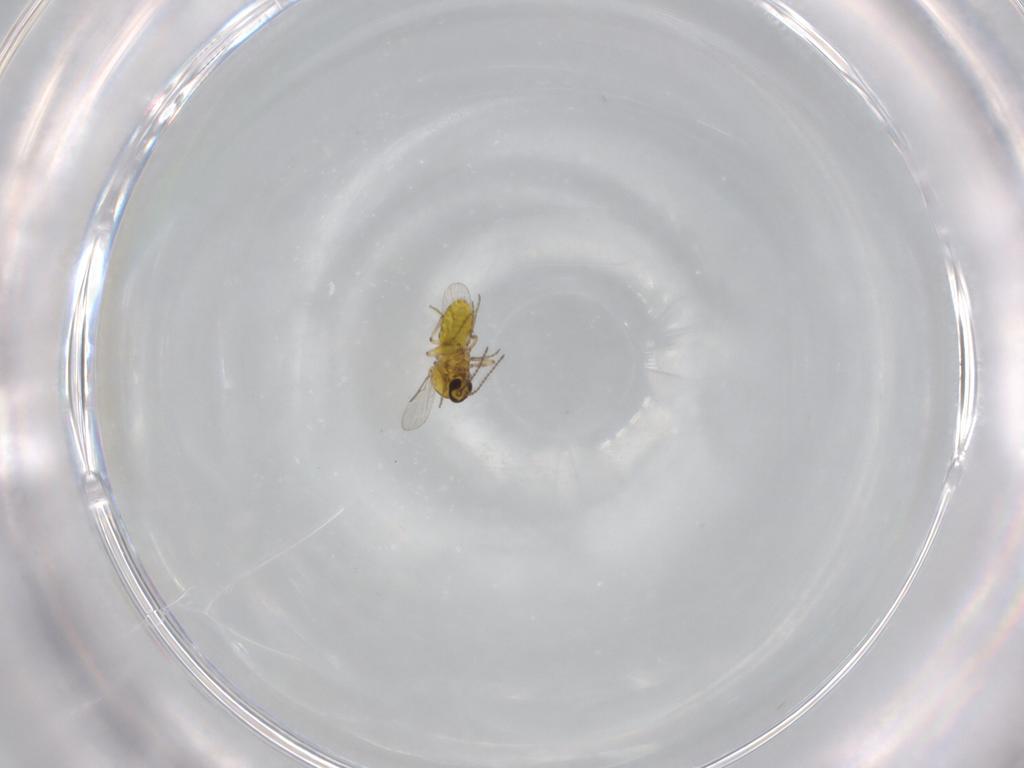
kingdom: Animalia
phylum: Arthropoda
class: Insecta
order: Diptera
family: Ceratopogonidae
